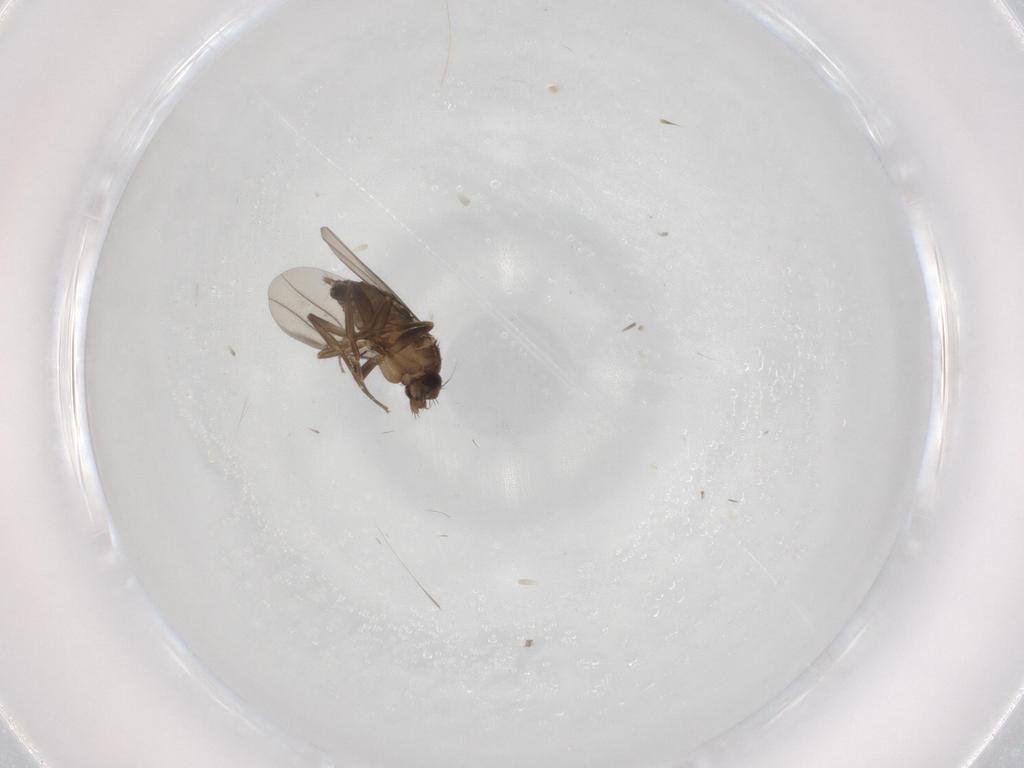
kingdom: Animalia
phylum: Arthropoda
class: Insecta
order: Diptera
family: Phoridae
